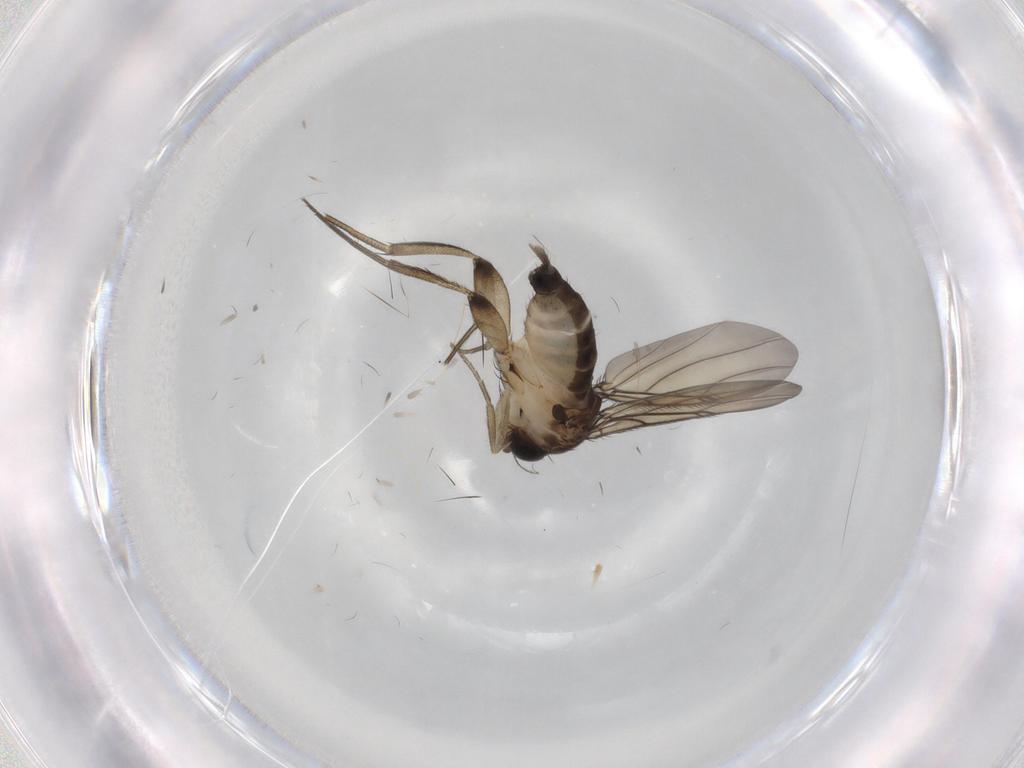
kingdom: Animalia
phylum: Arthropoda
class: Insecta
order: Diptera
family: Phoridae
